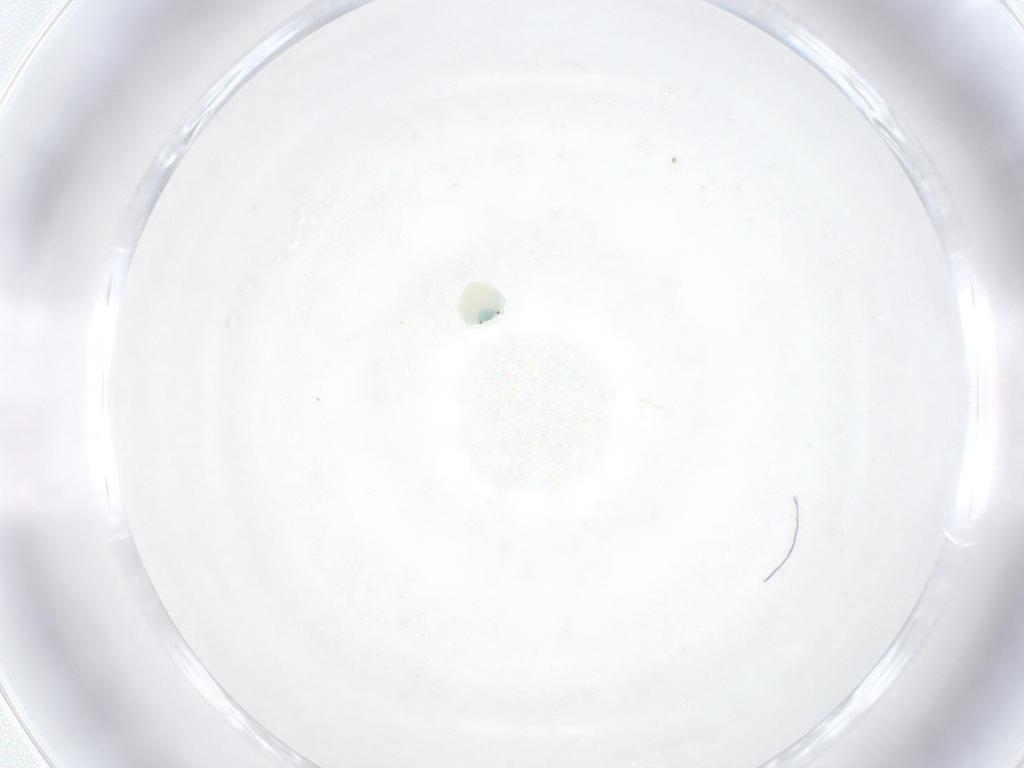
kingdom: Animalia
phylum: Arthropoda
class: Arachnida
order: Trombidiformes
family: Arrenuridae
